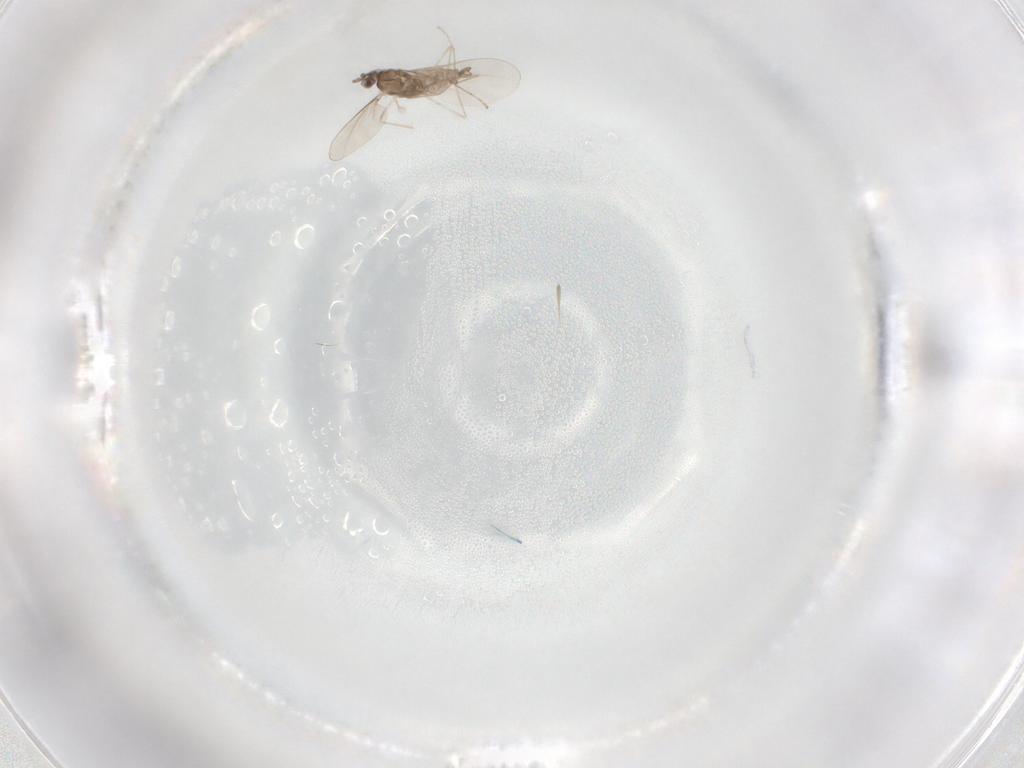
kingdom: Animalia
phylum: Arthropoda
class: Insecta
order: Diptera
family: Cecidomyiidae
